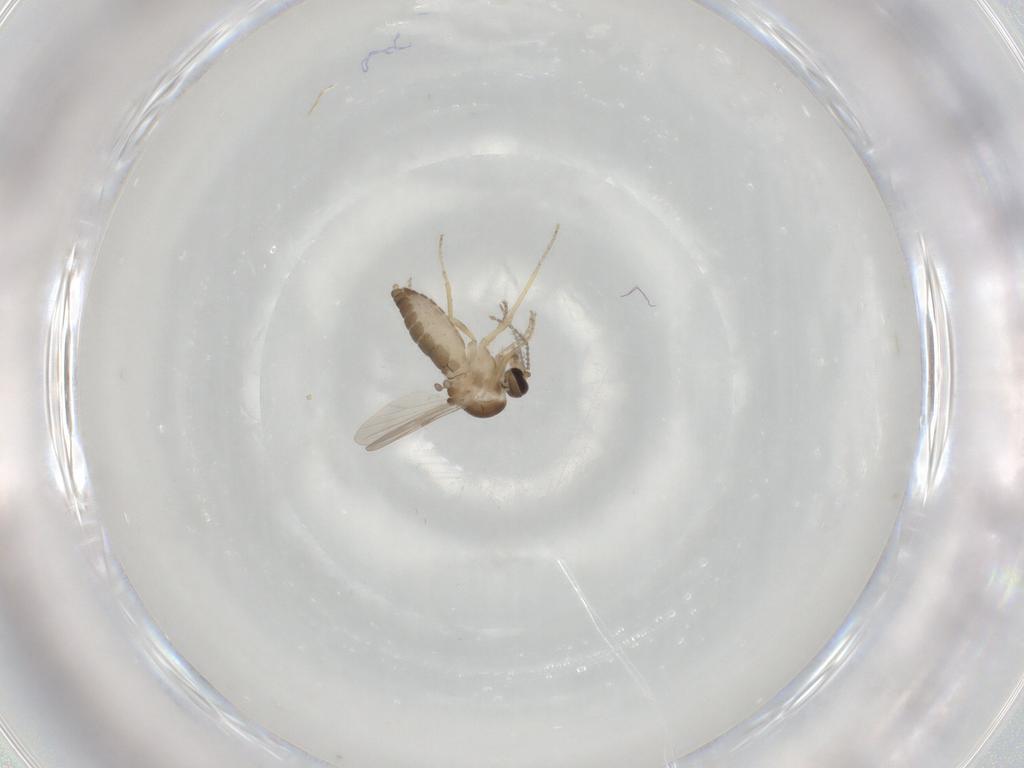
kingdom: Animalia
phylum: Arthropoda
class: Insecta
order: Diptera
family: Ceratopogonidae
